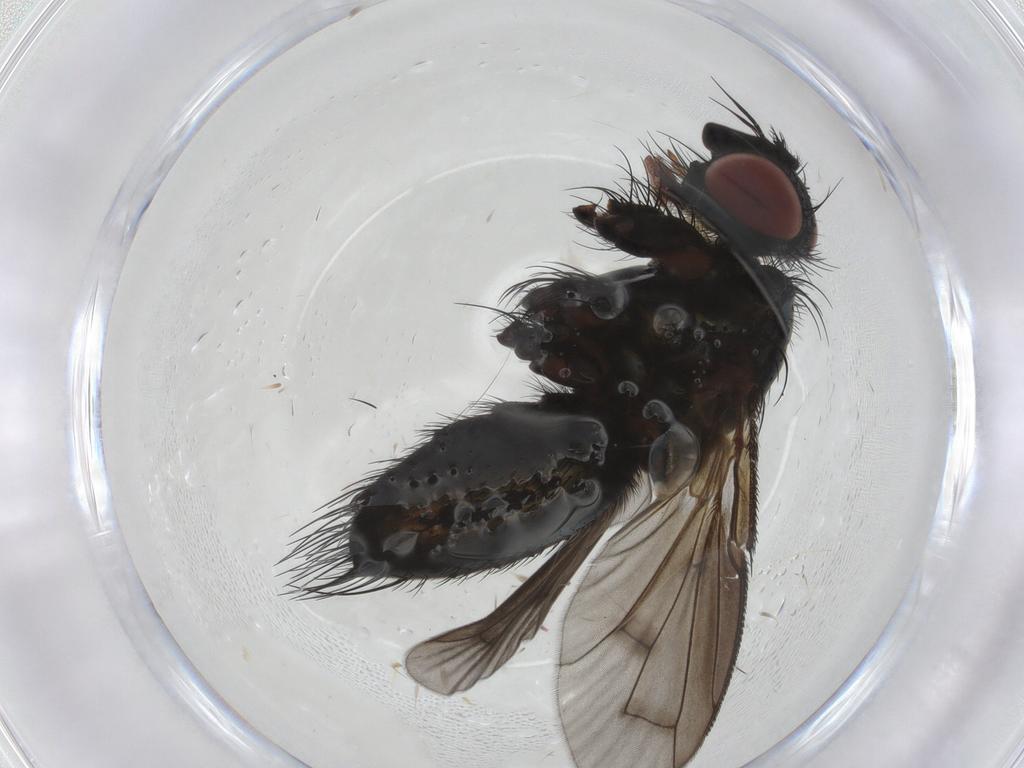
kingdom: Animalia
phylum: Arthropoda
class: Insecta
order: Diptera
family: Tachinidae
